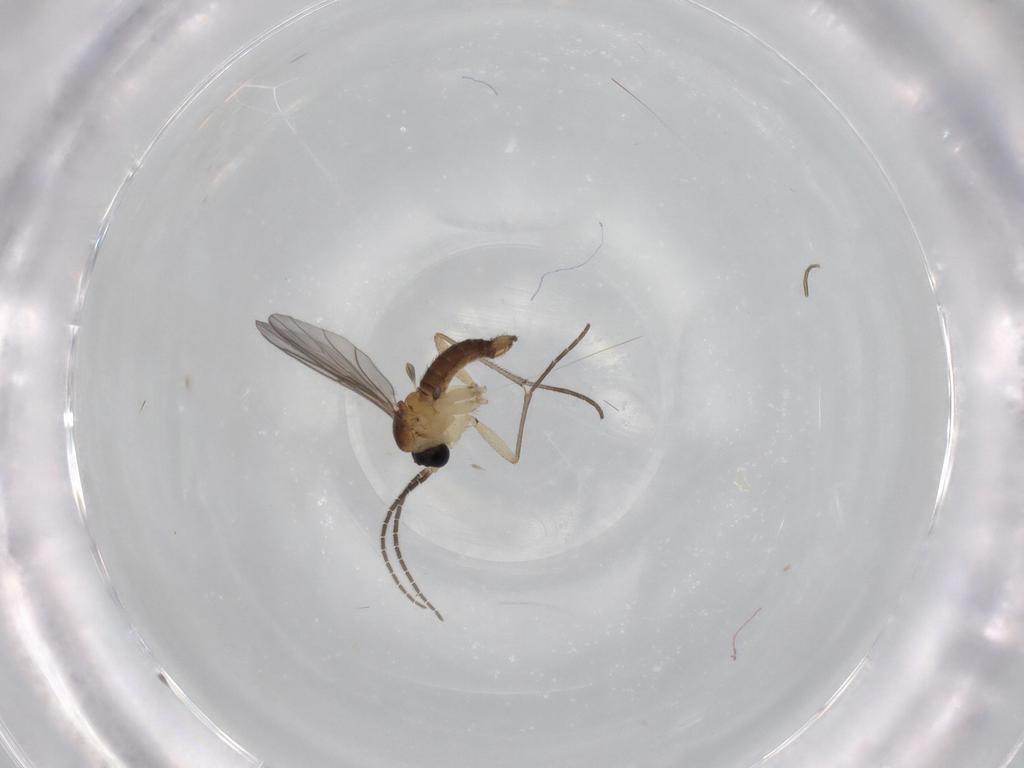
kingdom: Animalia
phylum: Arthropoda
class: Insecta
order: Diptera
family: Phoridae
